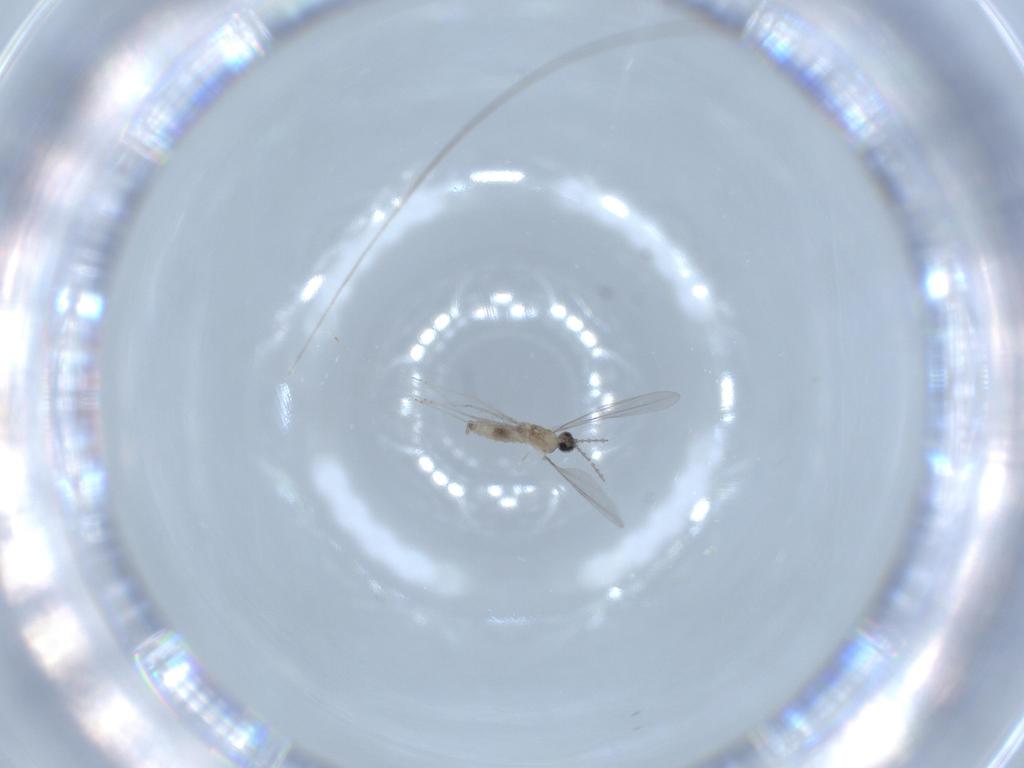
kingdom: Animalia
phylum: Arthropoda
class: Insecta
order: Diptera
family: Cecidomyiidae
